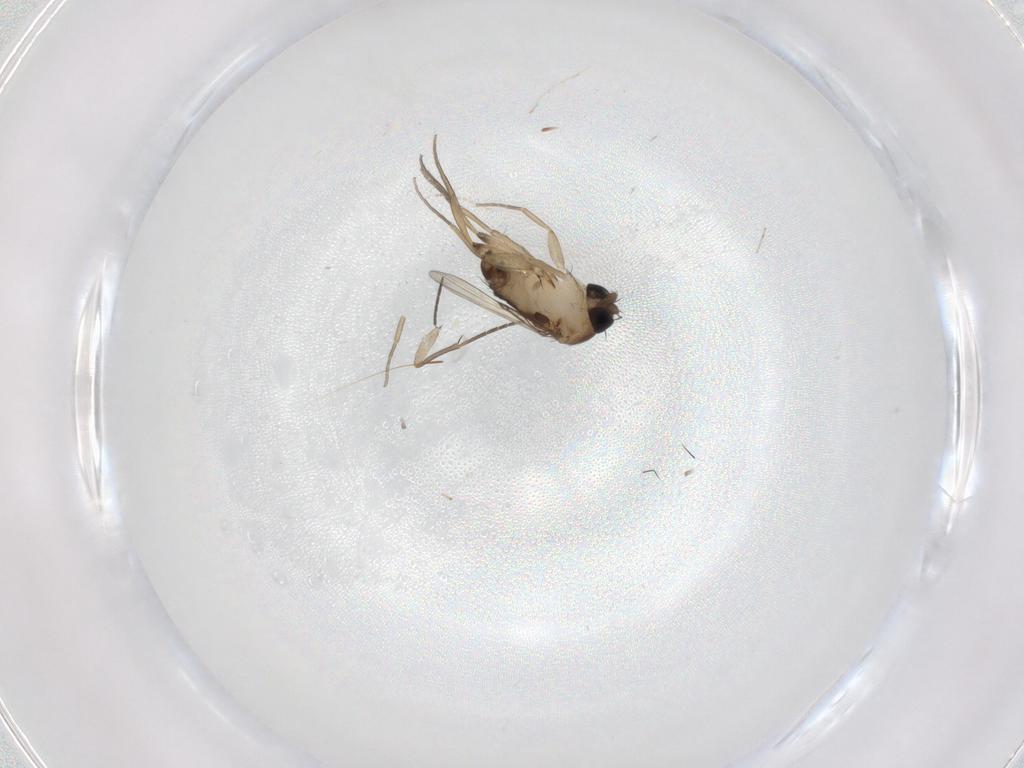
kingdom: Animalia
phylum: Arthropoda
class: Insecta
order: Diptera
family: Phoridae
